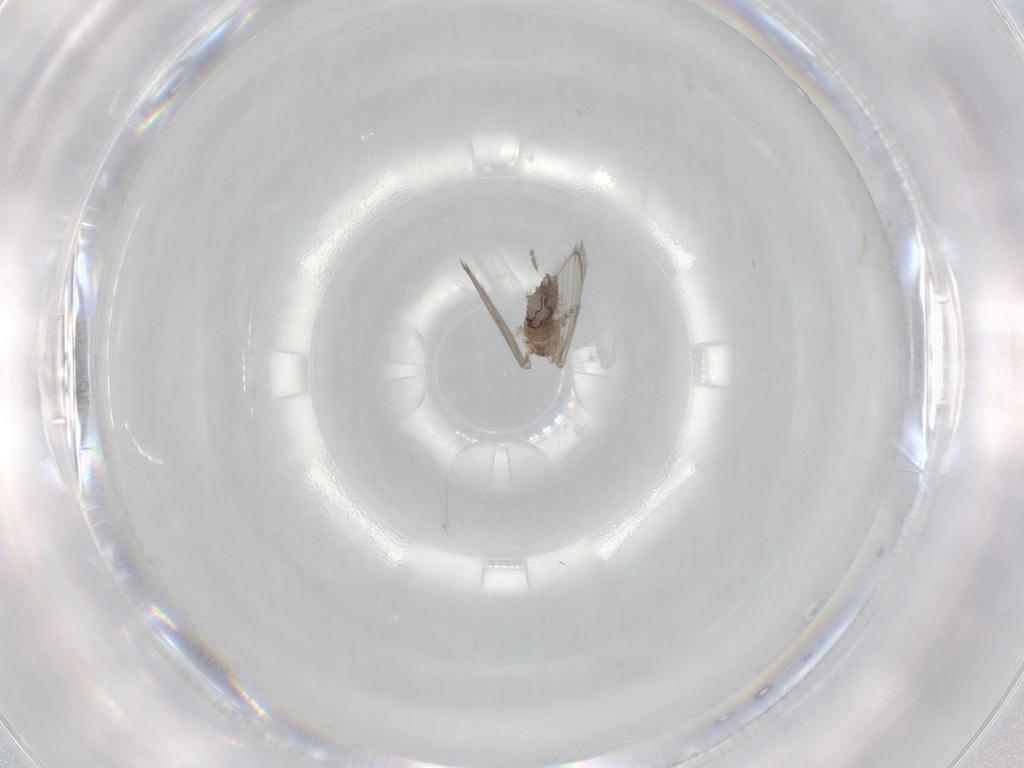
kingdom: Animalia
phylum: Arthropoda
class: Insecta
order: Diptera
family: Psychodidae
